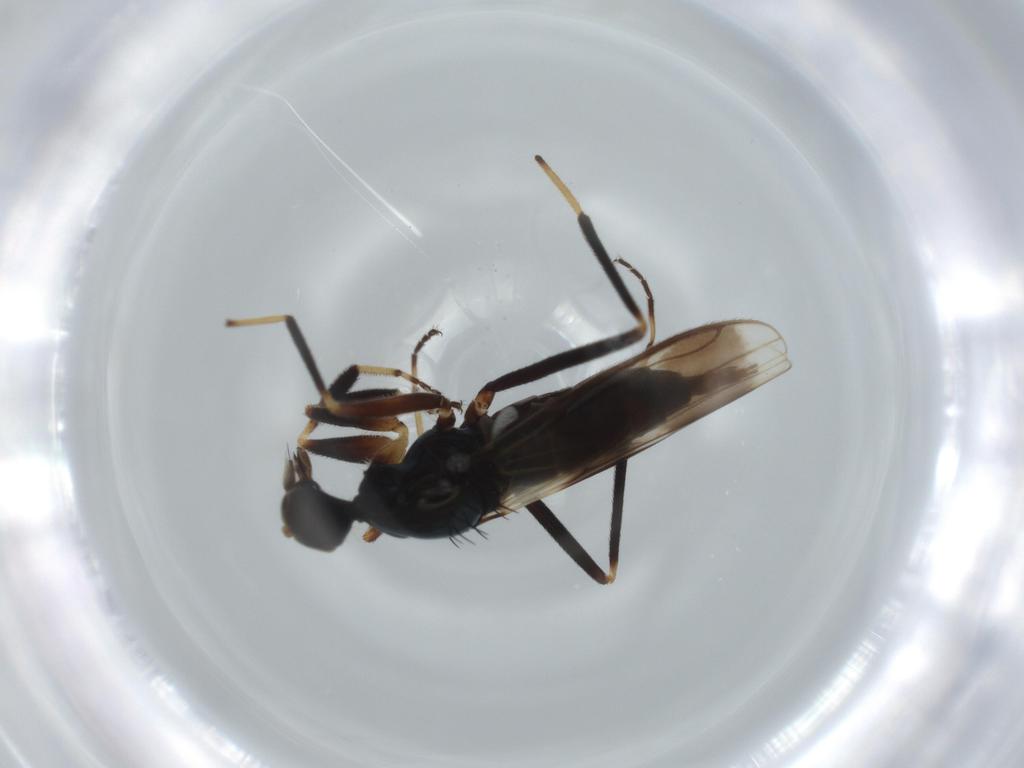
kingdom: Animalia
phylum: Arthropoda
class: Insecta
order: Diptera
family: Hybotidae
